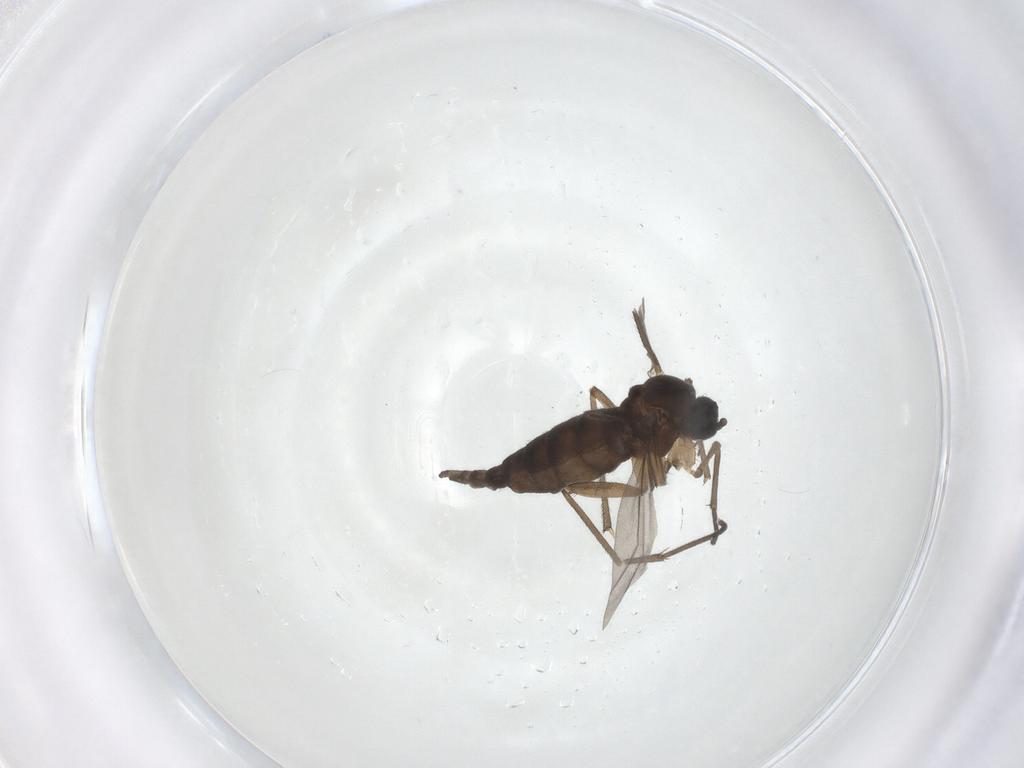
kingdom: Animalia
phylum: Arthropoda
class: Insecta
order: Diptera
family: Sciaridae
